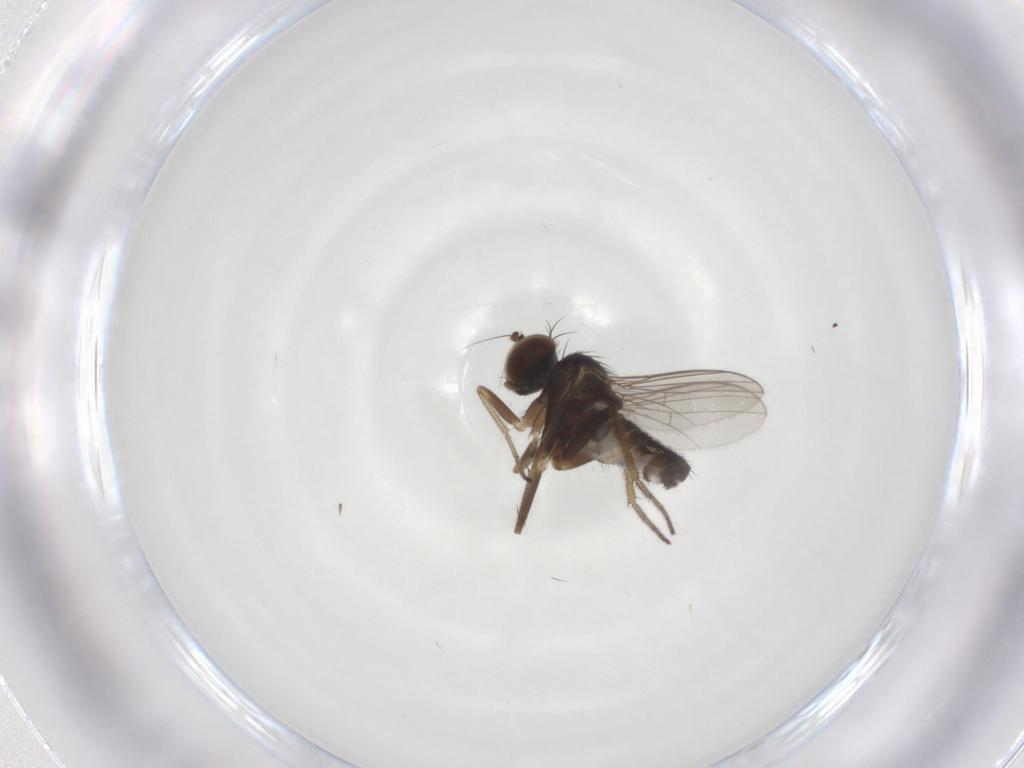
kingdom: Animalia
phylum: Arthropoda
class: Insecta
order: Diptera
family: Dolichopodidae
